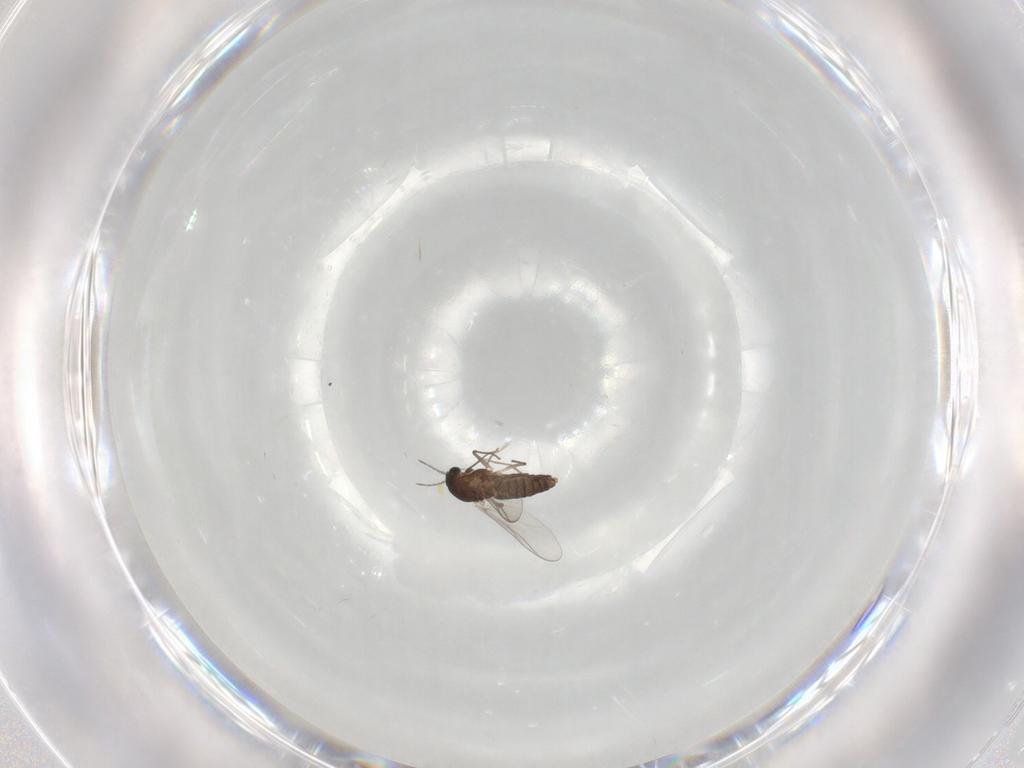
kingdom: Animalia
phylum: Arthropoda
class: Insecta
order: Diptera
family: Chironomidae
